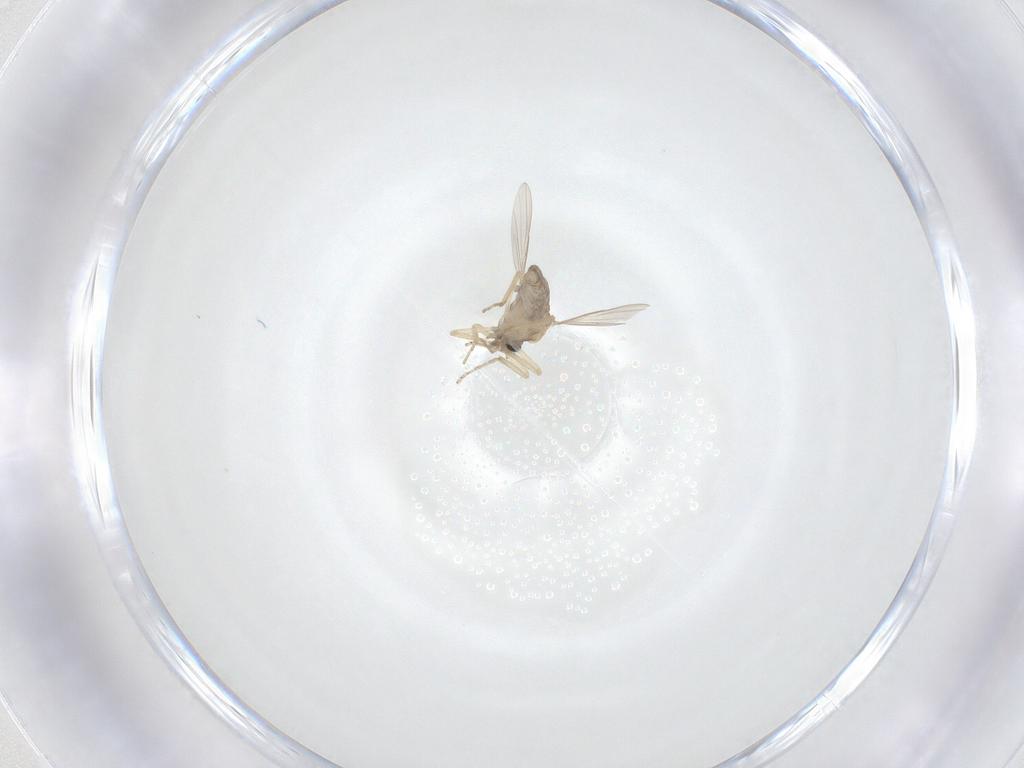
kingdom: Animalia
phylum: Arthropoda
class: Insecta
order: Diptera
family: Ceratopogonidae
